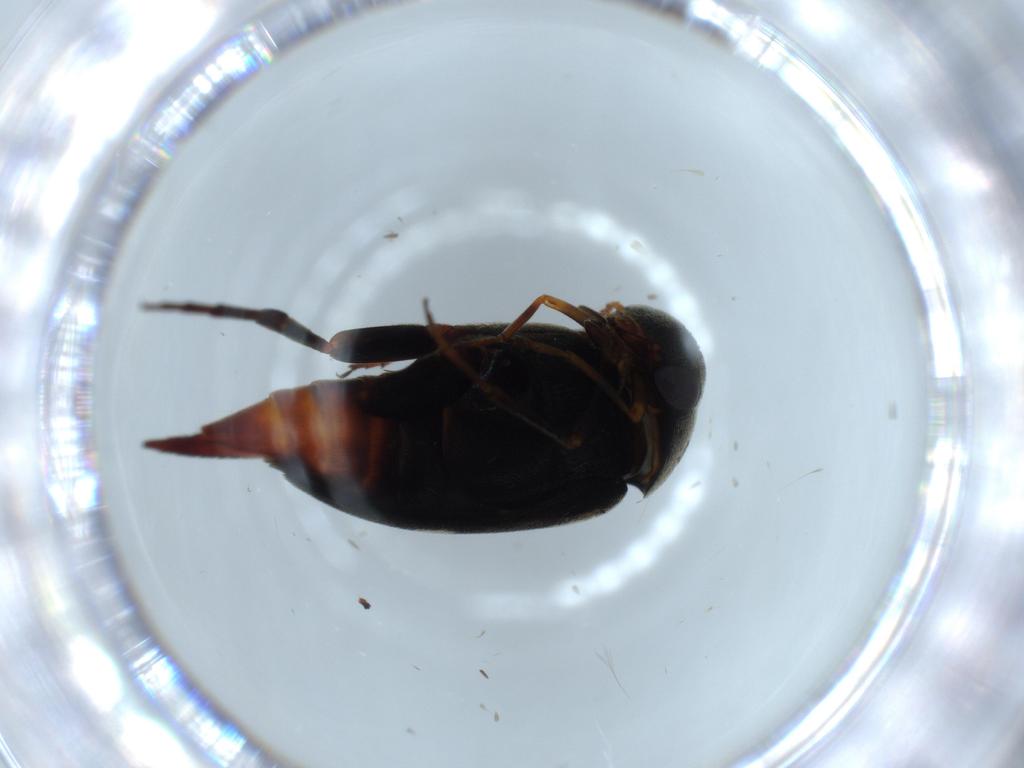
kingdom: Animalia
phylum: Arthropoda
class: Insecta
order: Coleoptera
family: Mordellidae
